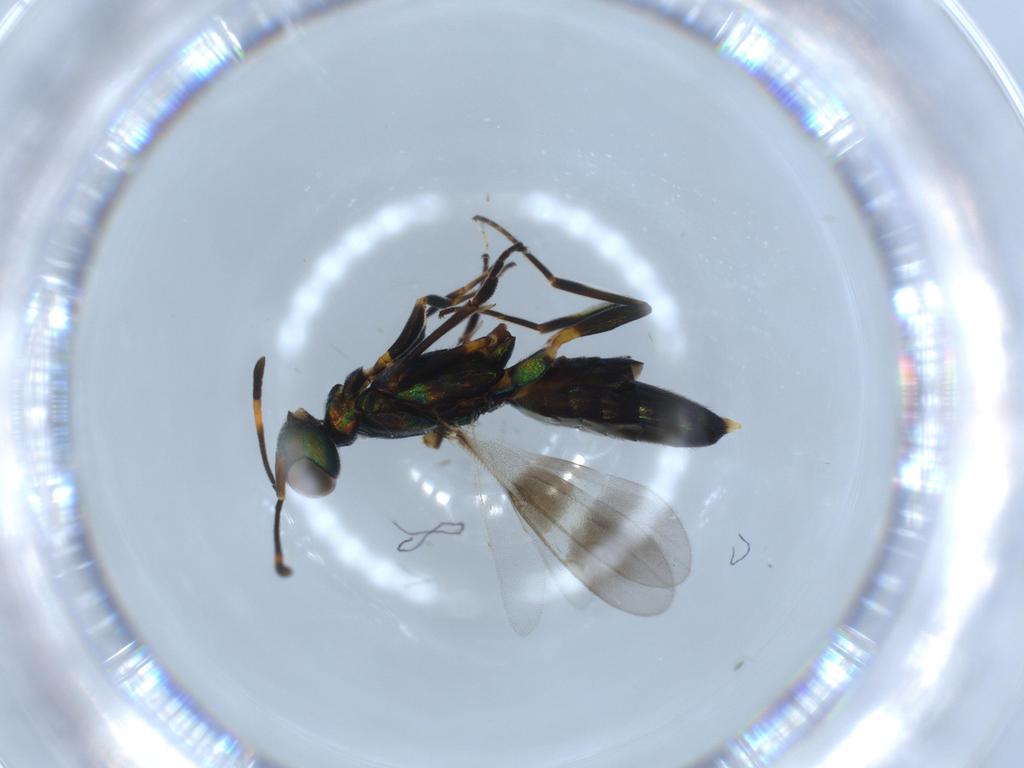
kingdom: Animalia
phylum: Arthropoda
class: Insecta
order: Hymenoptera
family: Eupelmidae
